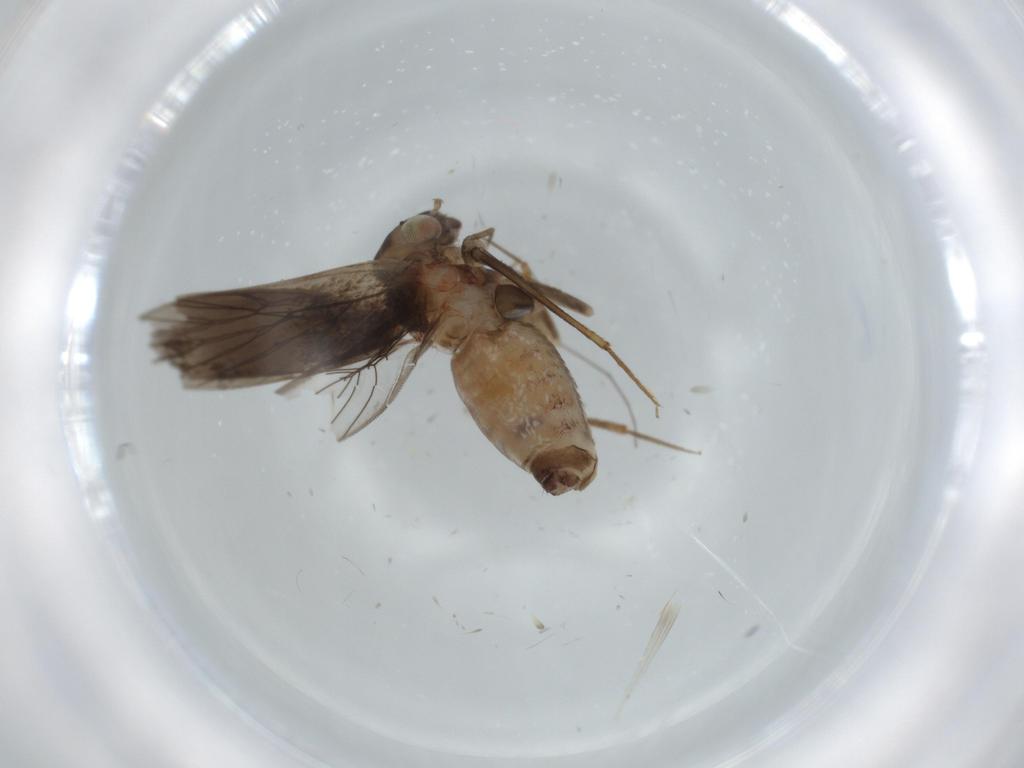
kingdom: Animalia
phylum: Arthropoda
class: Insecta
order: Psocodea
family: Lepidopsocidae
